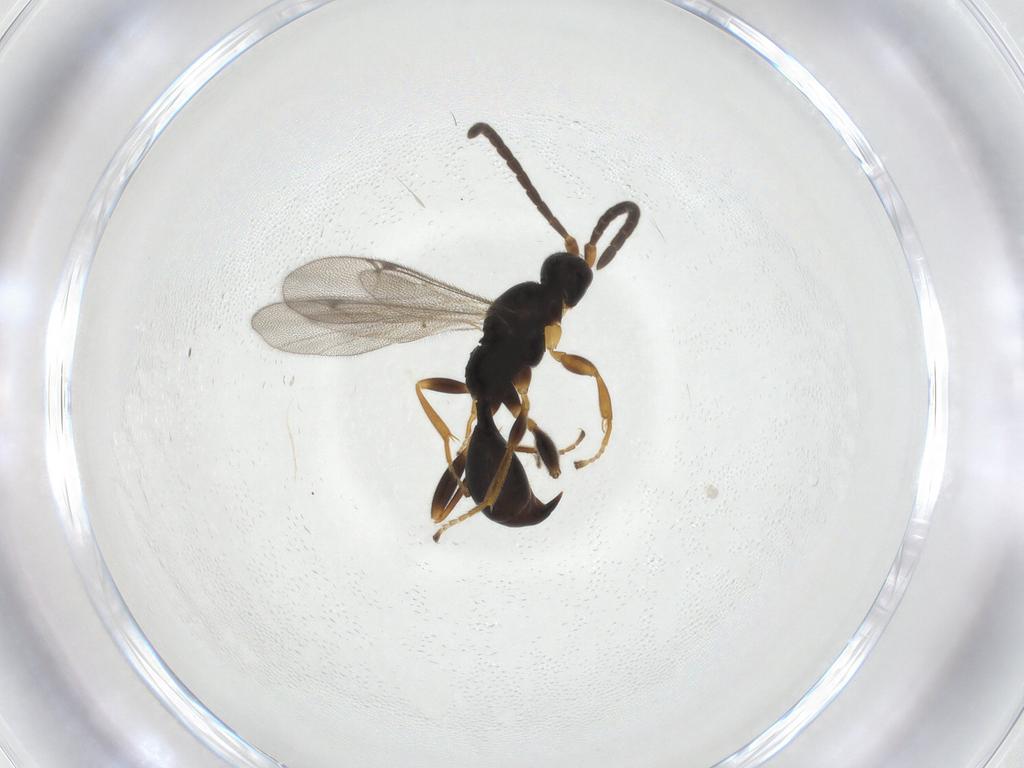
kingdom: Animalia
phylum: Arthropoda
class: Insecta
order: Hymenoptera
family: Proctotrupidae
